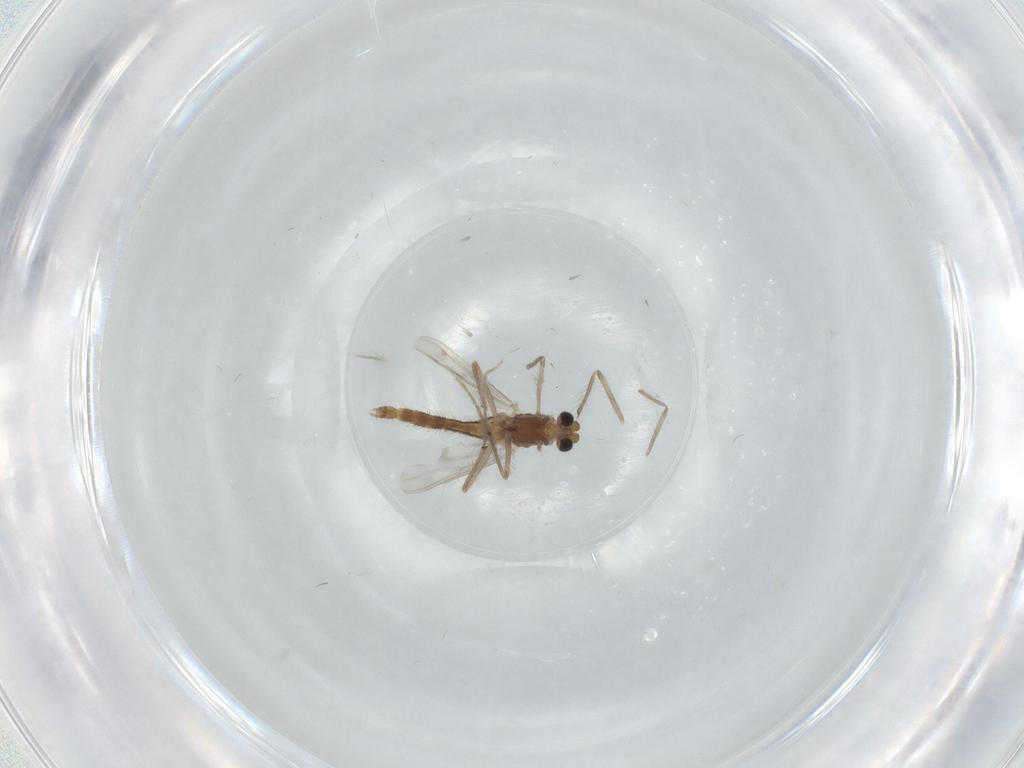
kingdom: Animalia
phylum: Arthropoda
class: Insecta
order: Diptera
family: Chironomidae
